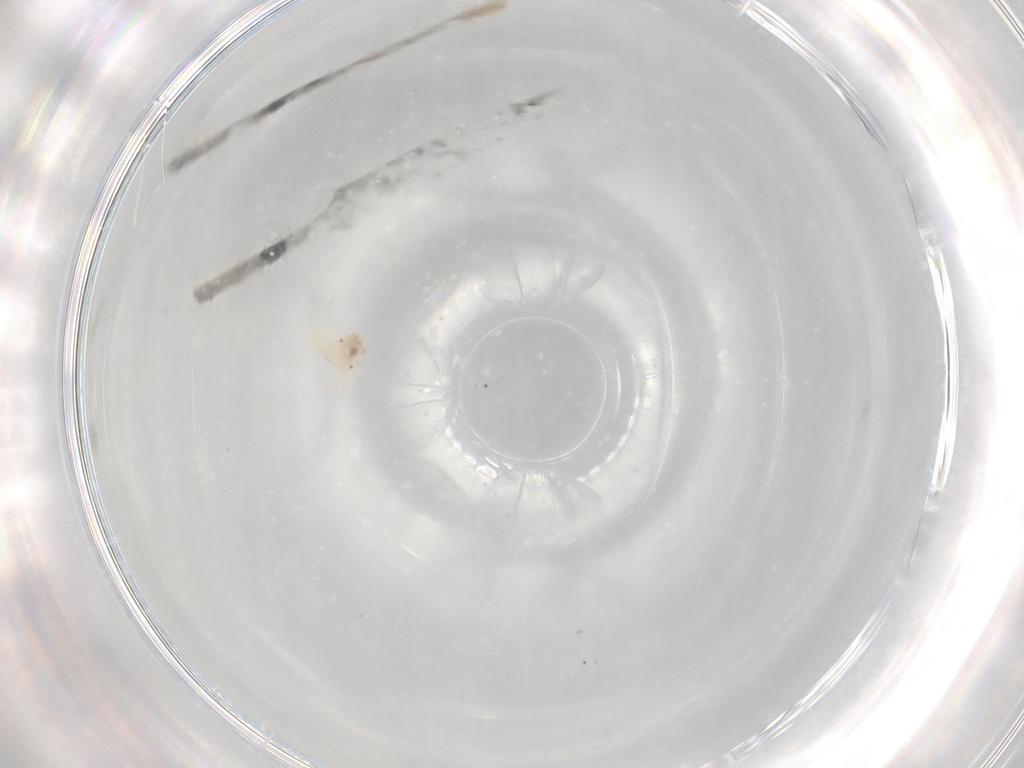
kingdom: Animalia
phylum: Arthropoda
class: Arachnida
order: Trombidiformes
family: Anystidae
